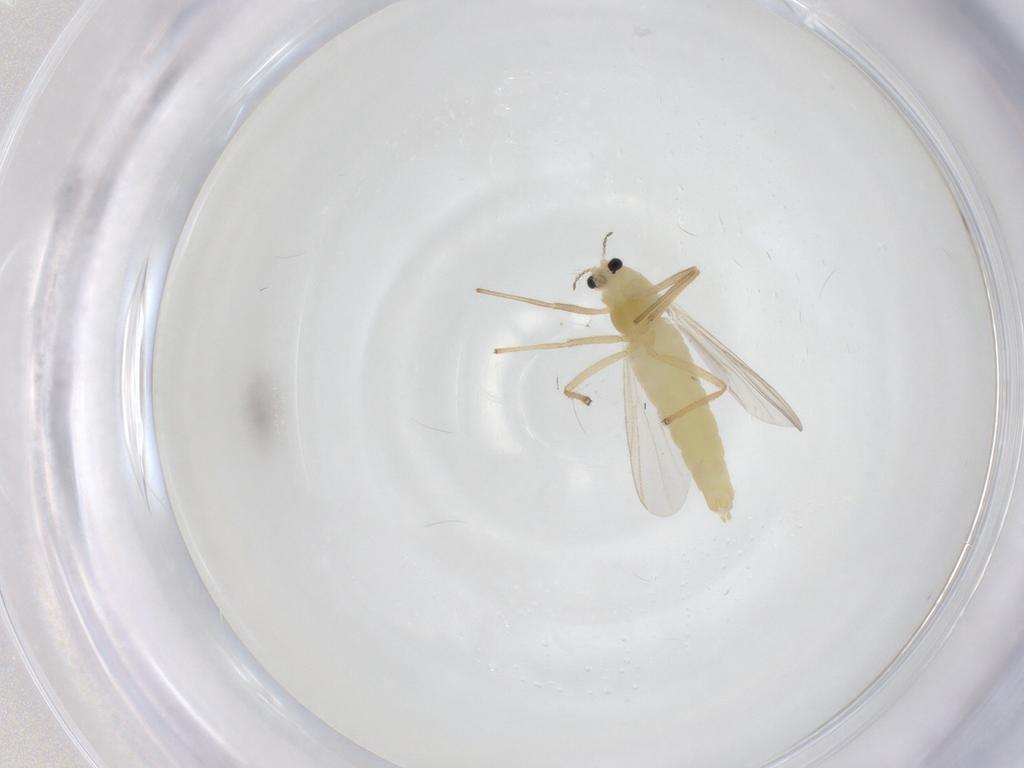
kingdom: Animalia
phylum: Arthropoda
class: Insecta
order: Diptera
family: Chironomidae
